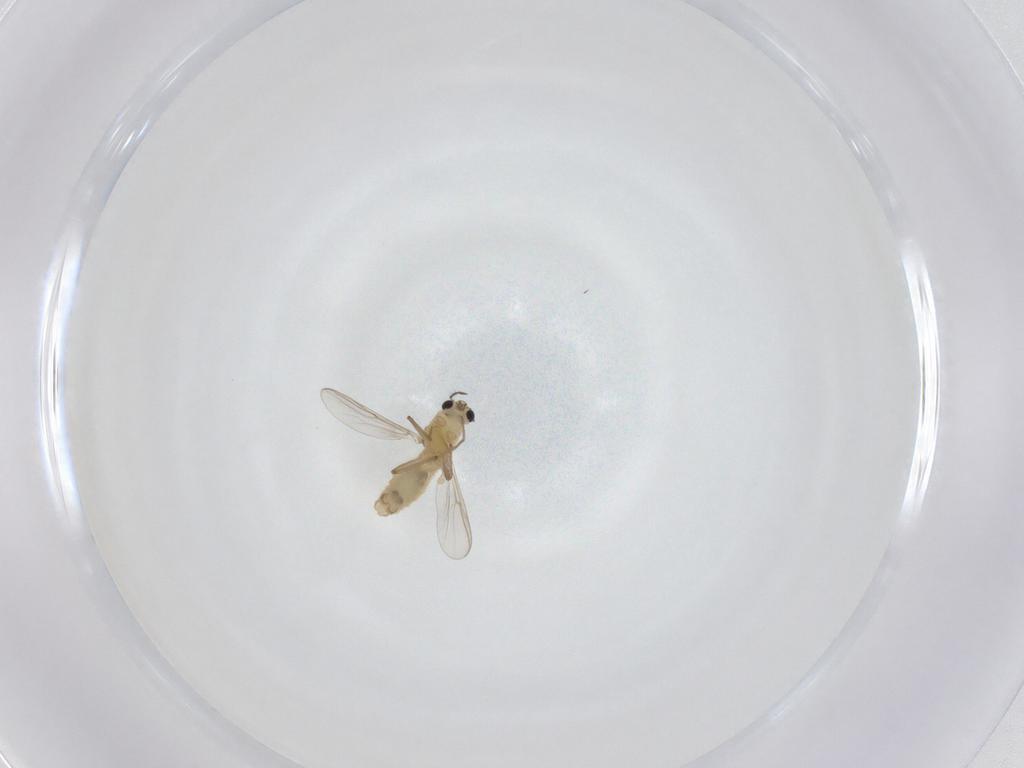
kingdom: Animalia
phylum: Arthropoda
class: Insecta
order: Diptera
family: Ceratopogonidae
